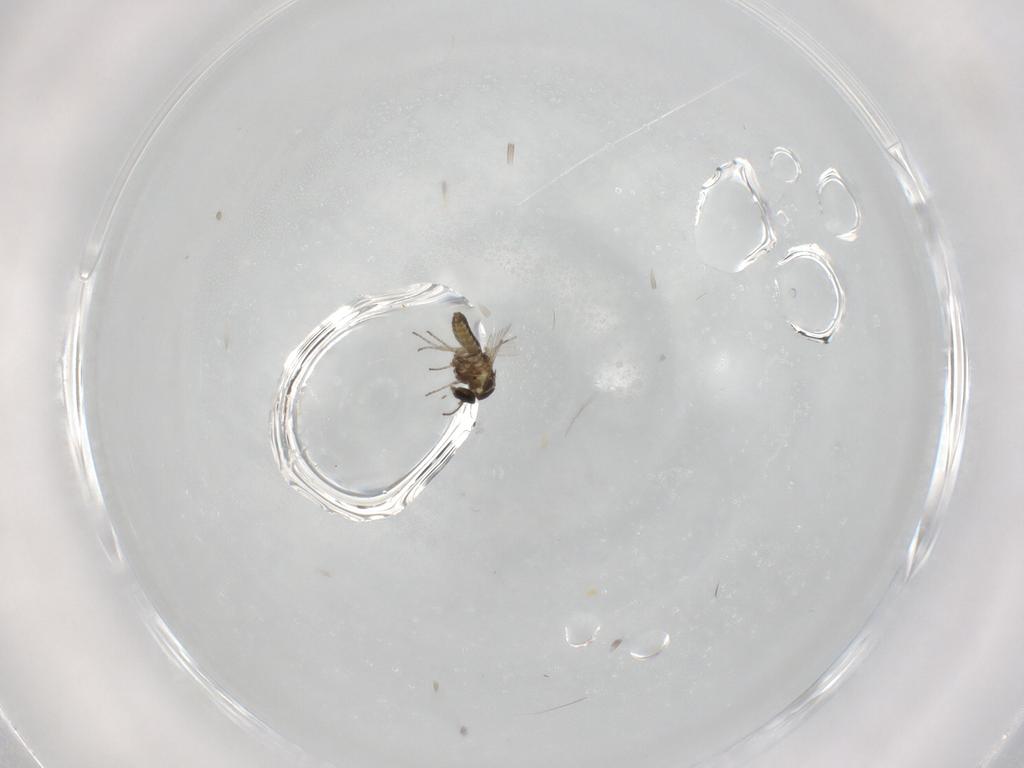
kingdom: Animalia
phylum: Arthropoda
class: Insecta
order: Diptera
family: Ceratopogonidae
